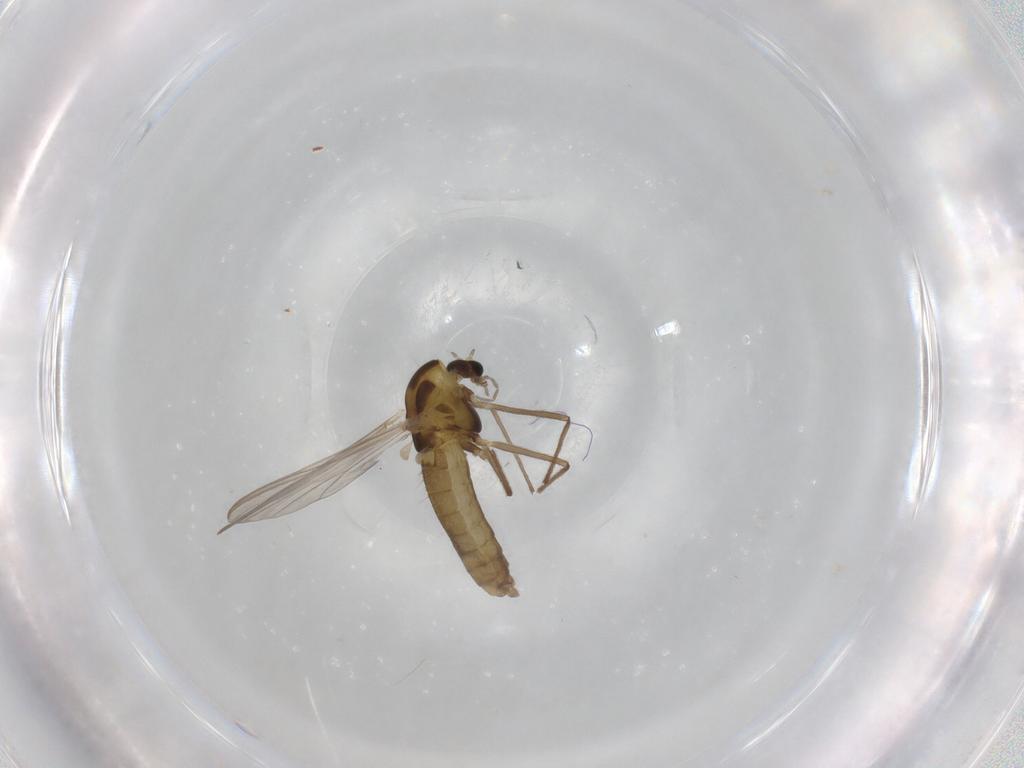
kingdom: Animalia
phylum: Arthropoda
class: Insecta
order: Diptera
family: Chironomidae
